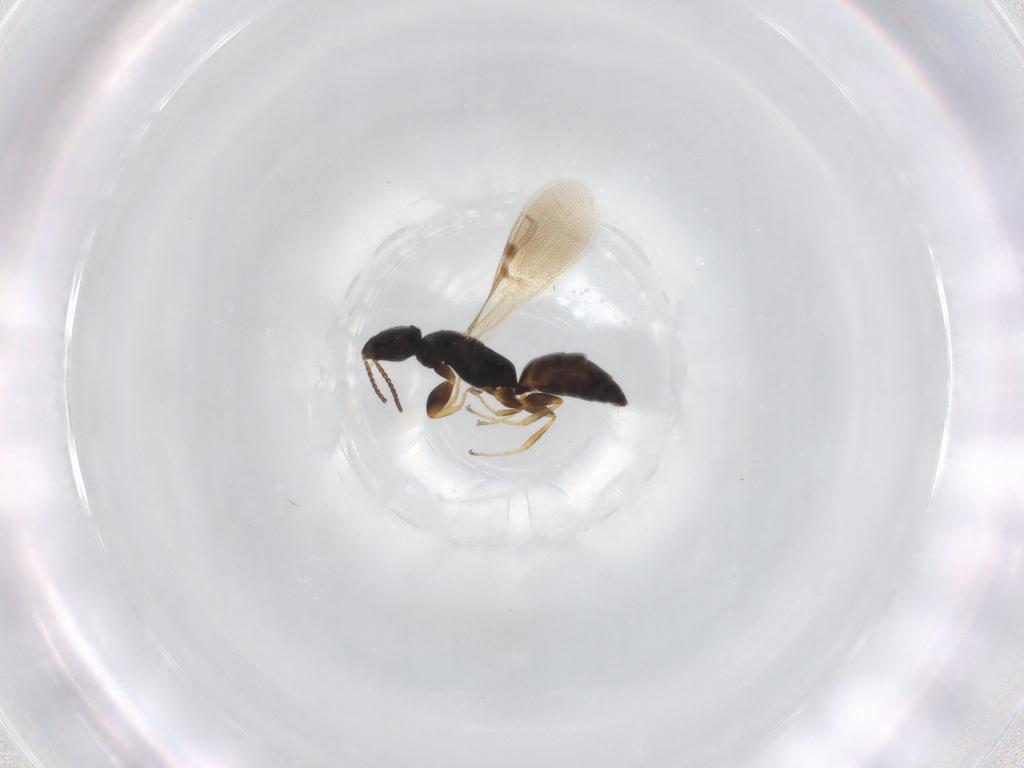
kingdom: Animalia
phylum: Arthropoda
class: Insecta
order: Hymenoptera
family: Bethylidae
